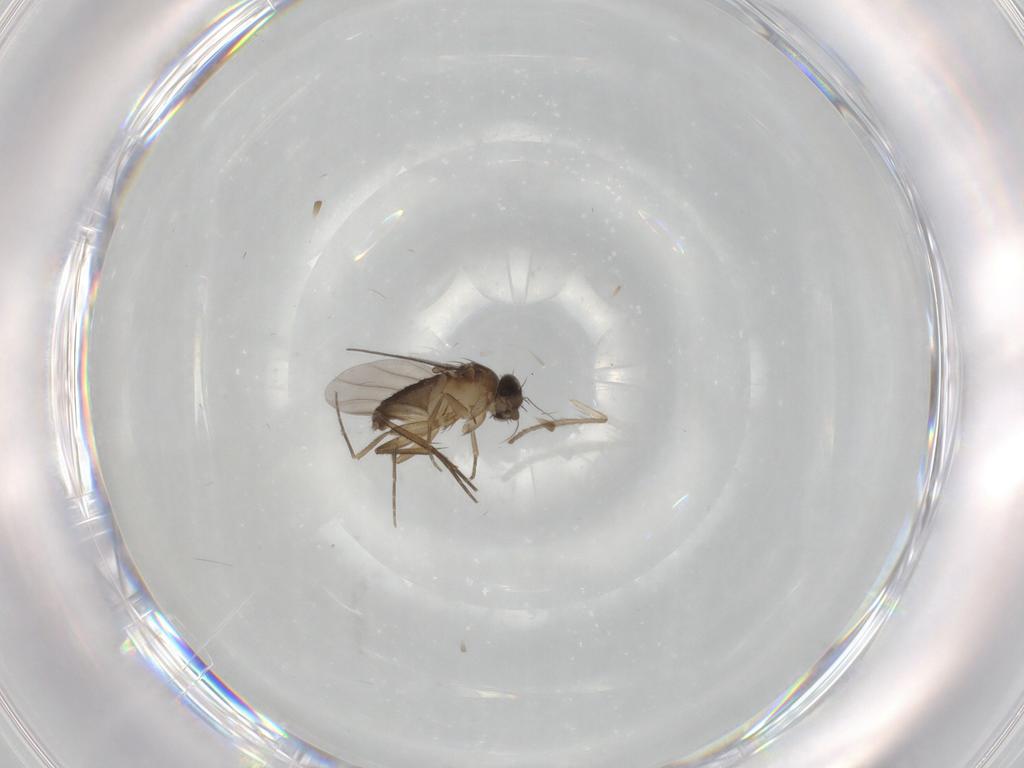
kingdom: Animalia
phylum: Arthropoda
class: Insecta
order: Diptera
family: Phoridae
